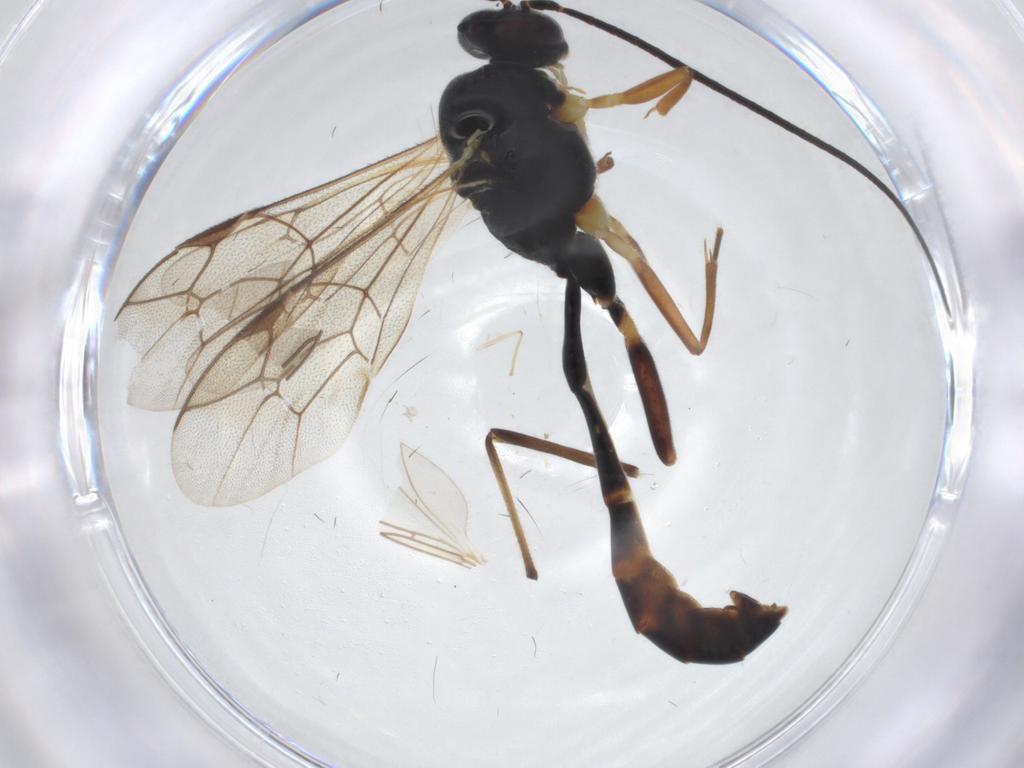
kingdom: Animalia
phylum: Arthropoda
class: Insecta
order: Hymenoptera
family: Ichneumonidae
